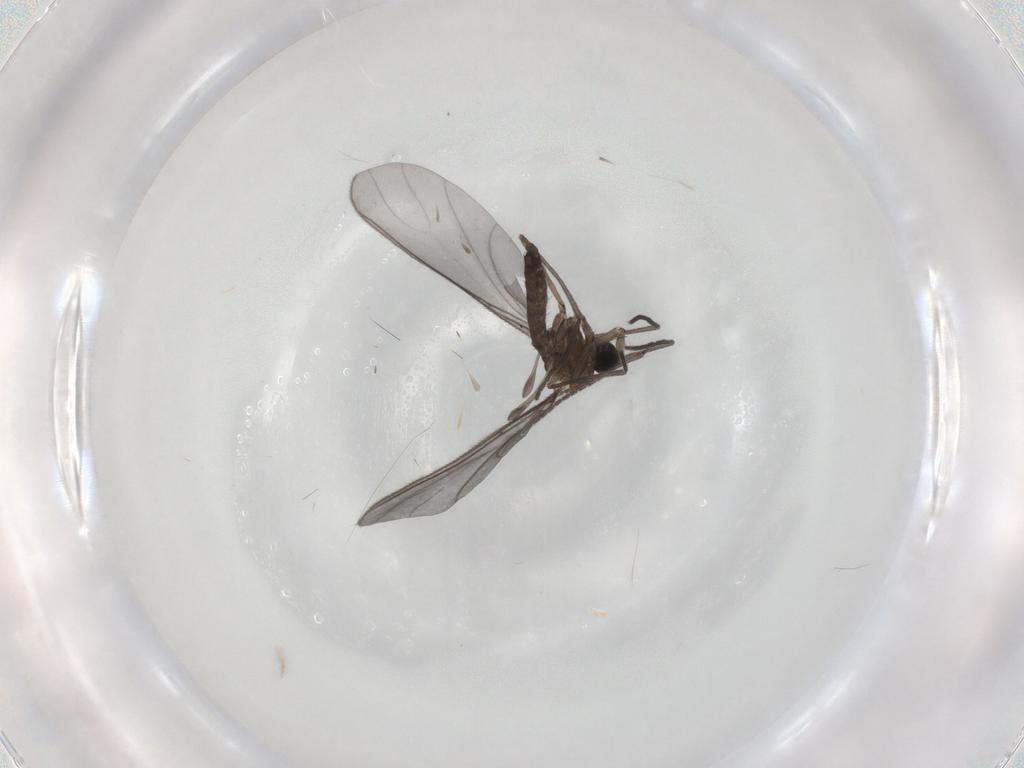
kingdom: Animalia
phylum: Arthropoda
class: Insecta
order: Diptera
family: Sciaridae
